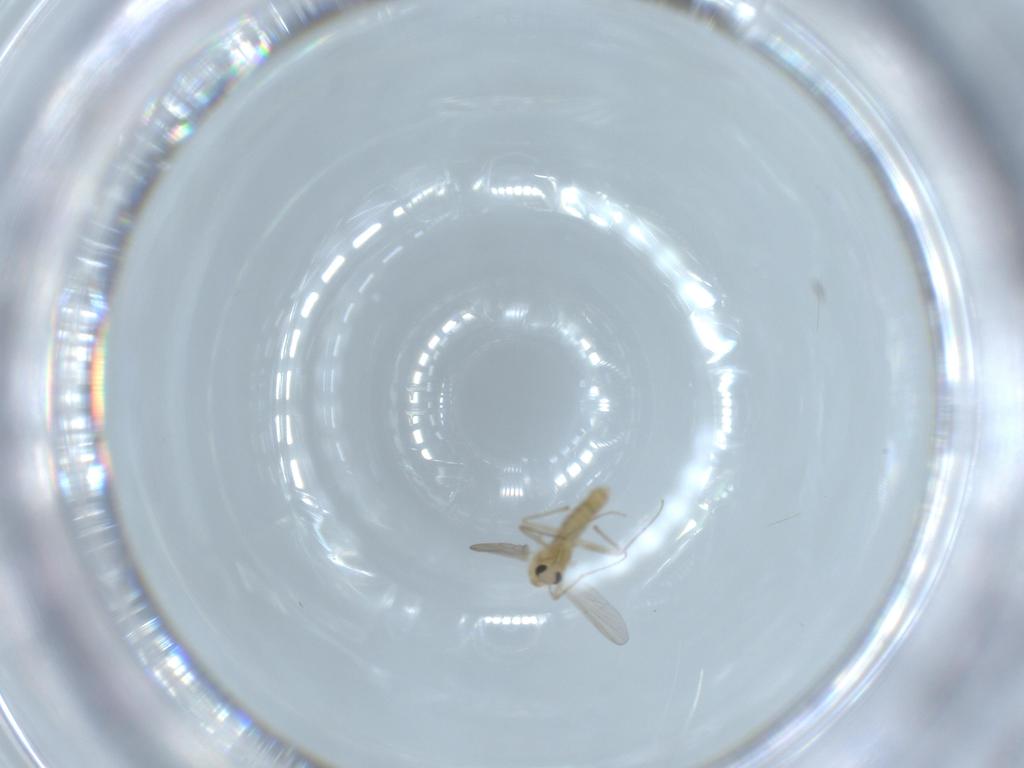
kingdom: Animalia
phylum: Arthropoda
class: Insecta
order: Diptera
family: Chironomidae
